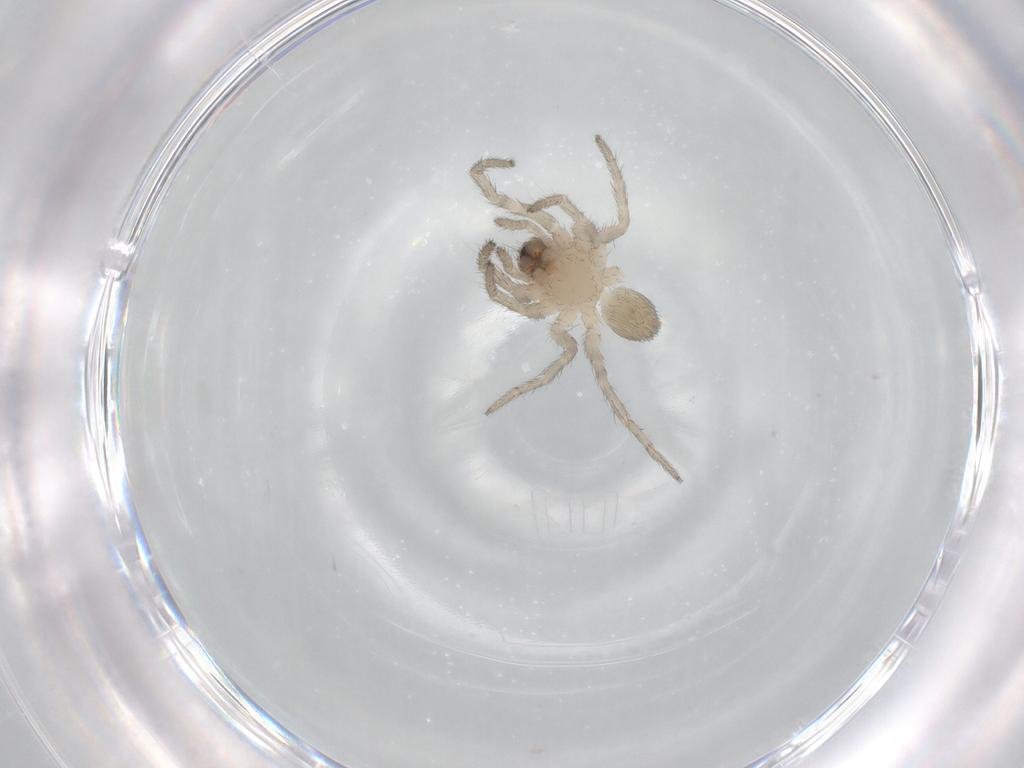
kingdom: Animalia
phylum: Arthropoda
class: Arachnida
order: Araneae
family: Lycosidae
